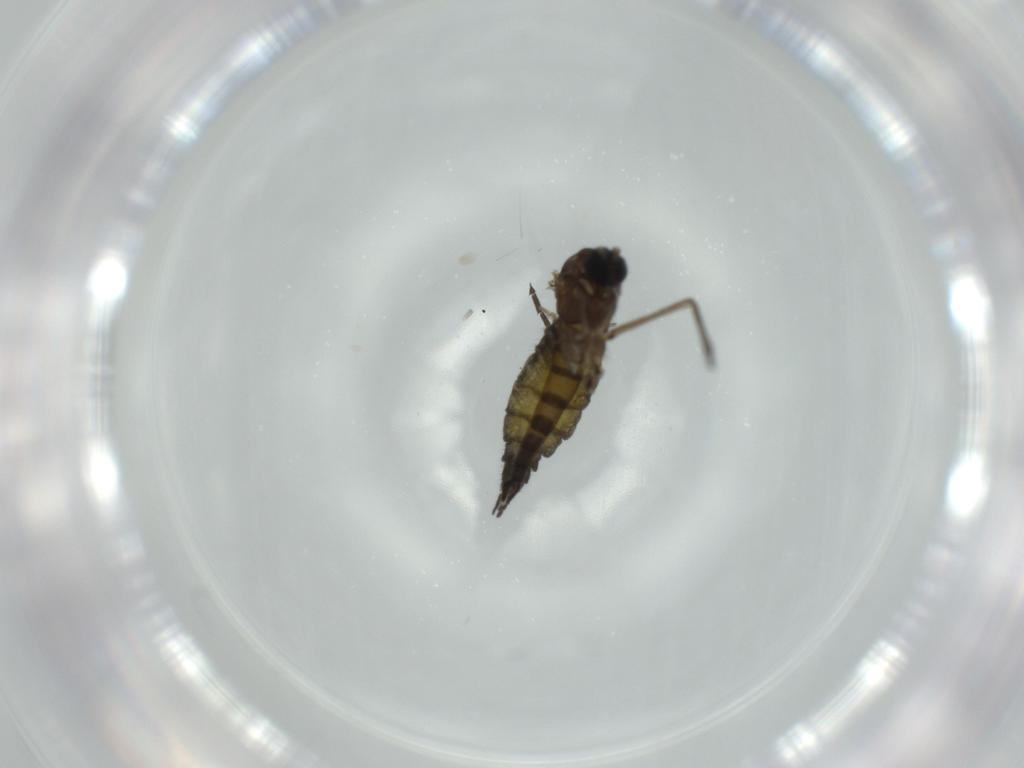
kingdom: Animalia
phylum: Arthropoda
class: Insecta
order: Diptera
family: Sciaridae
